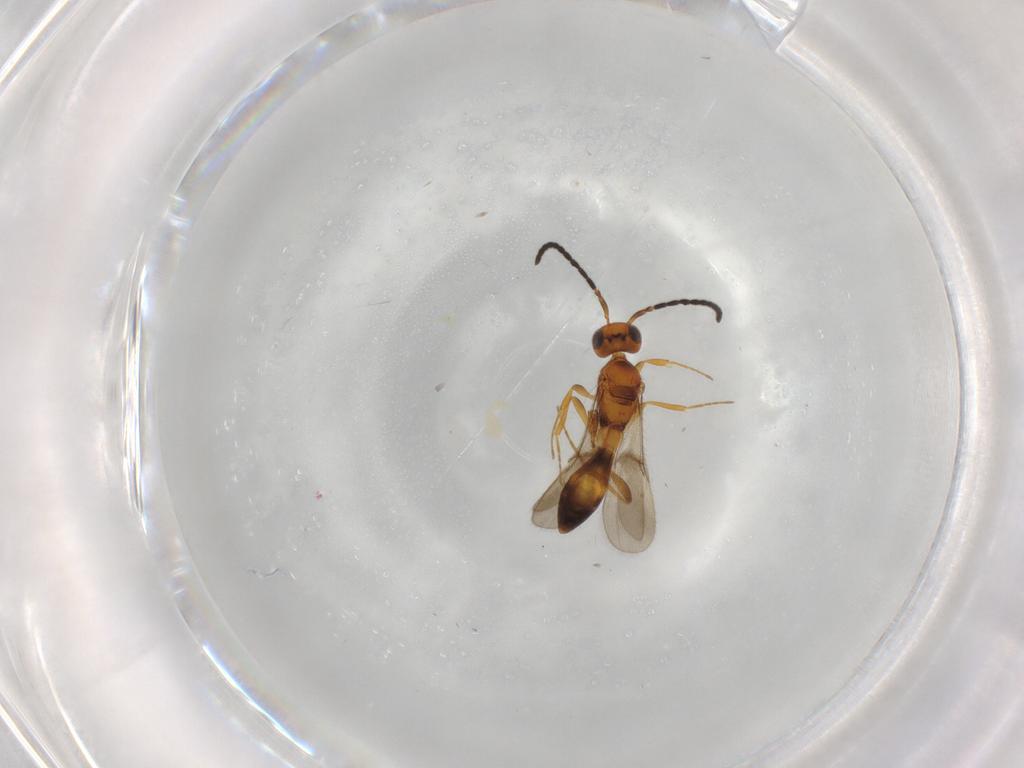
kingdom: Animalia
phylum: Arthropoda
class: Insecta
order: Hymenoptera
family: Scelionidae
